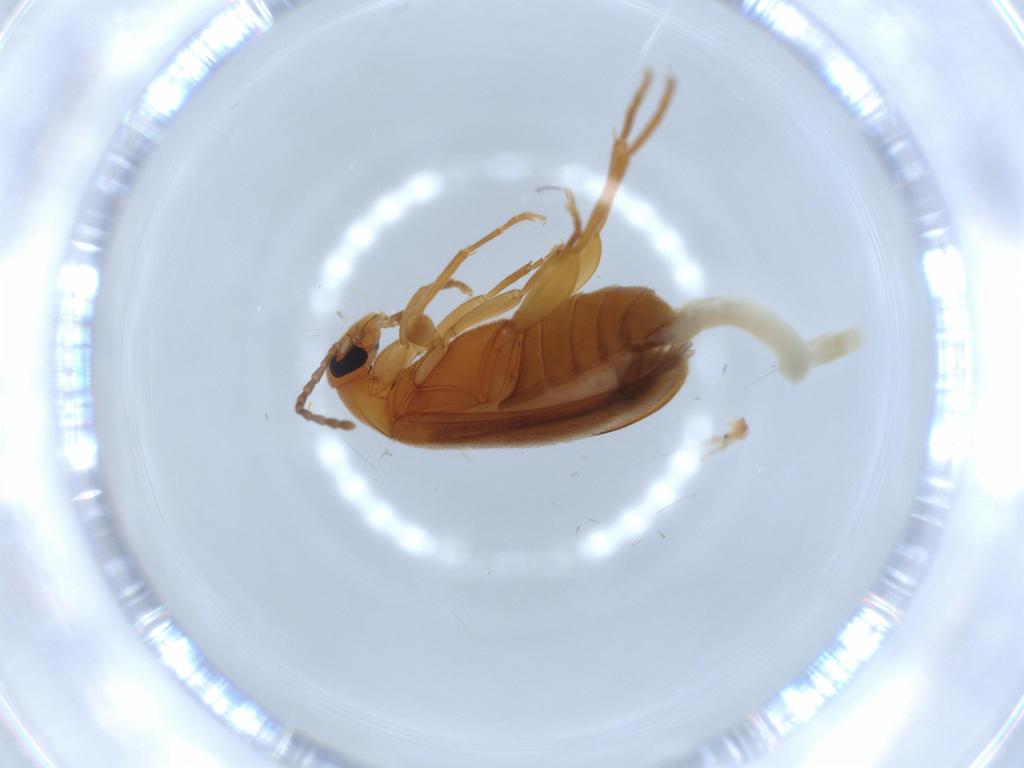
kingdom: Animalia
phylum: Arthropoda
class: Insecta
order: Coleoptera
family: Scraptiidae
